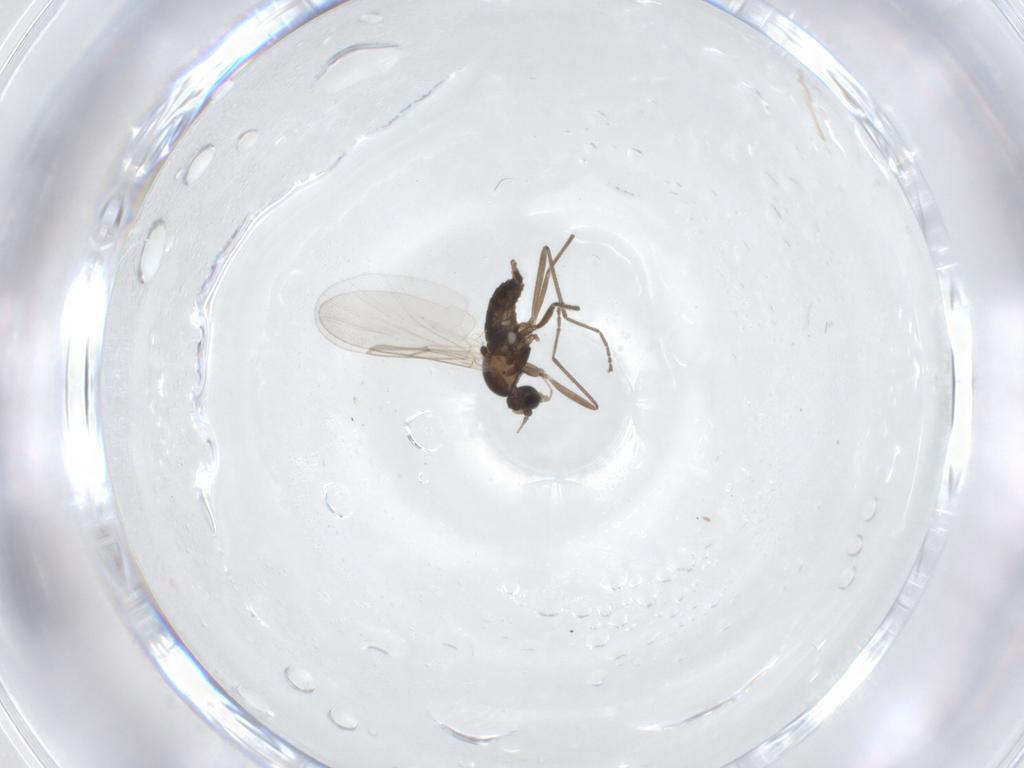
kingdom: Animalia
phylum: Arthropoda
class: Insecta
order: Diptera
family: Cecidomyiidae
